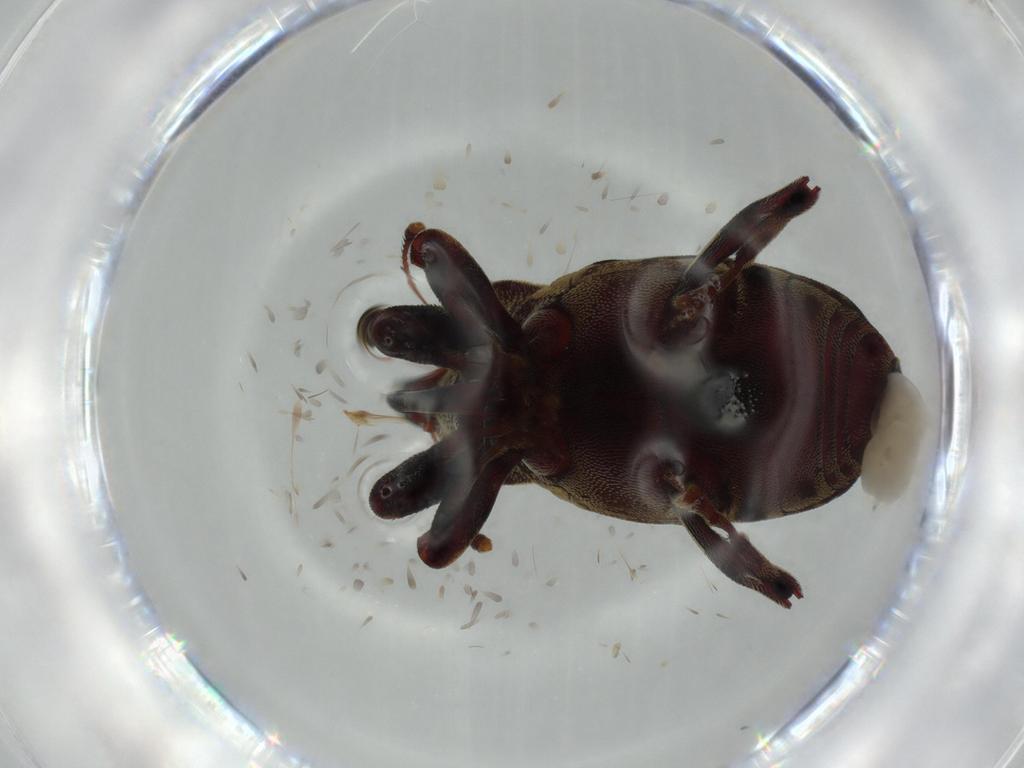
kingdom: Animalia
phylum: Arthropoda
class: Insecta
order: Coleoptera
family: Curculionidae
